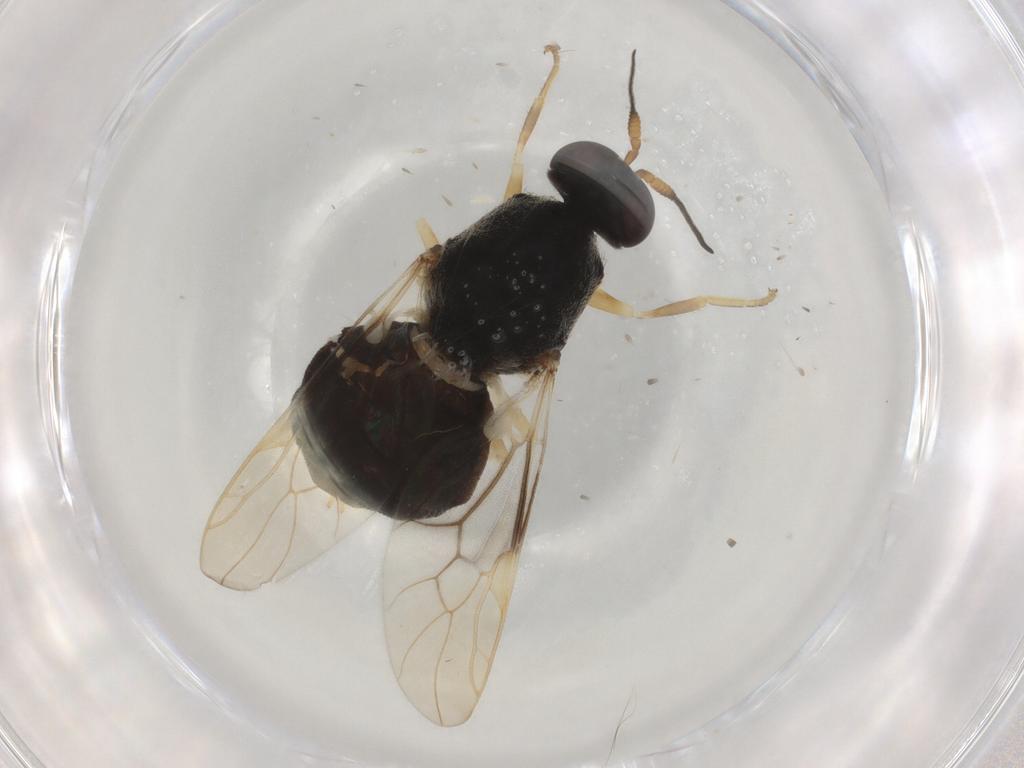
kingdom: Animalia
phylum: Arthropoda
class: Insecta
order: Diptera
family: Stratiomyidae
